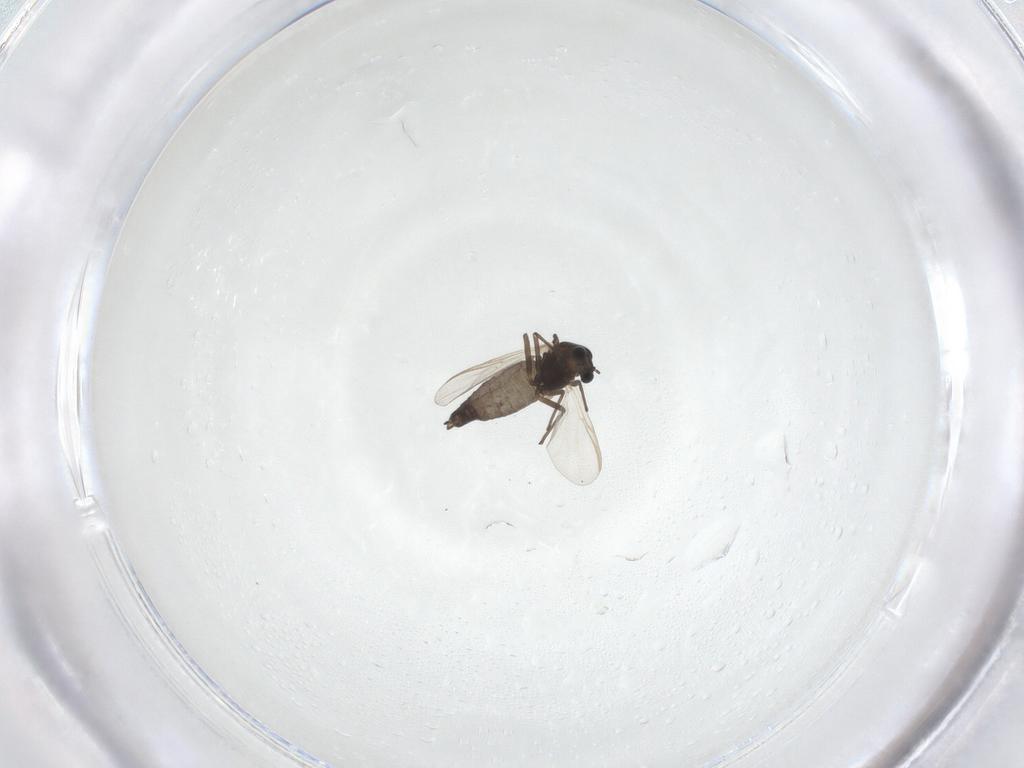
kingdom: Animalia
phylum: Arthropoda
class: Insecta
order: Diptera
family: Chironomidae
